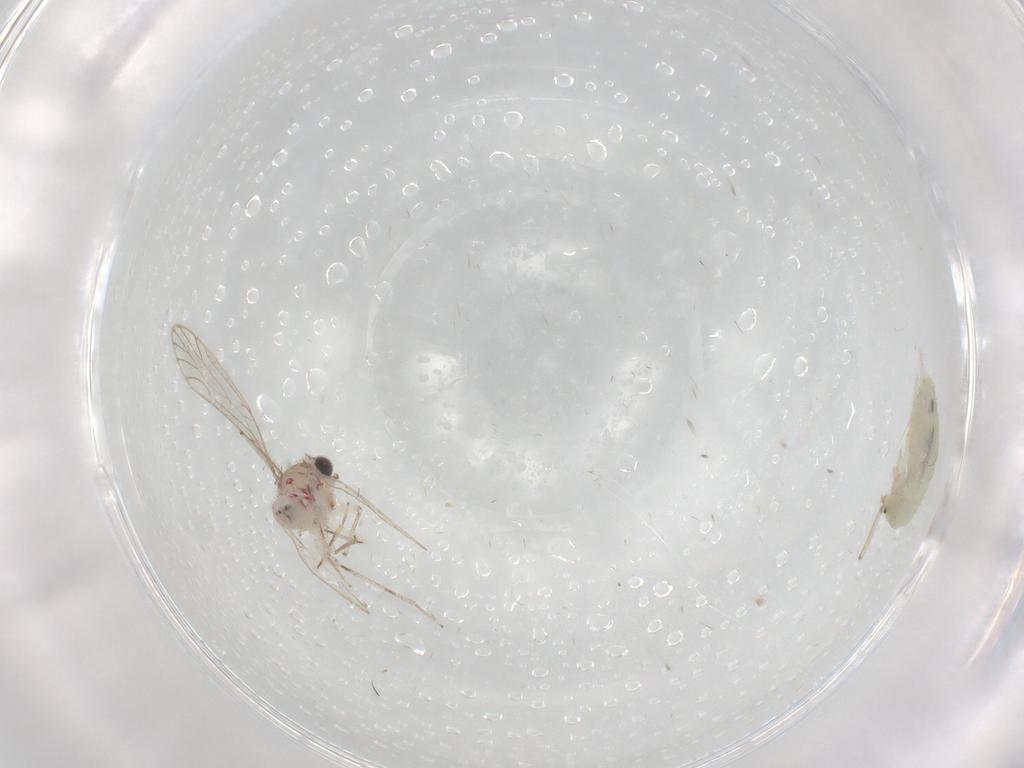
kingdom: Animalia
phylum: Arthropoda
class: Insecta
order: Psocodea
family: Caeciliusidae
